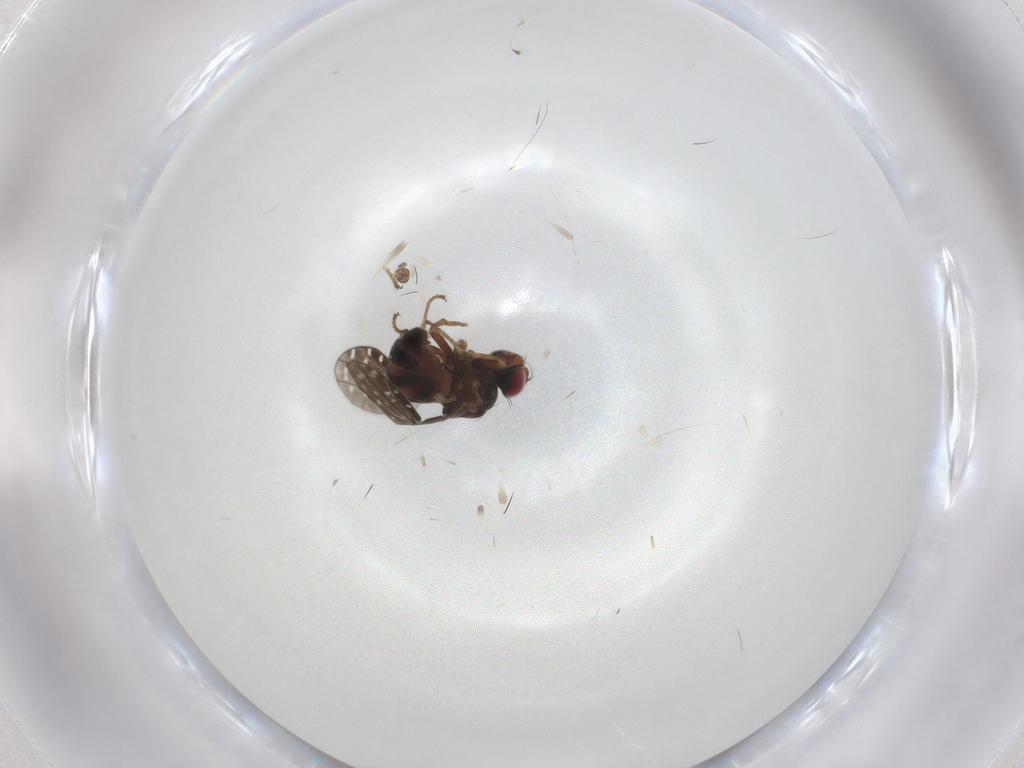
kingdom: Animalia
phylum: Arthropoda
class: Insecta
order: Diptera
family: Ephydridae
